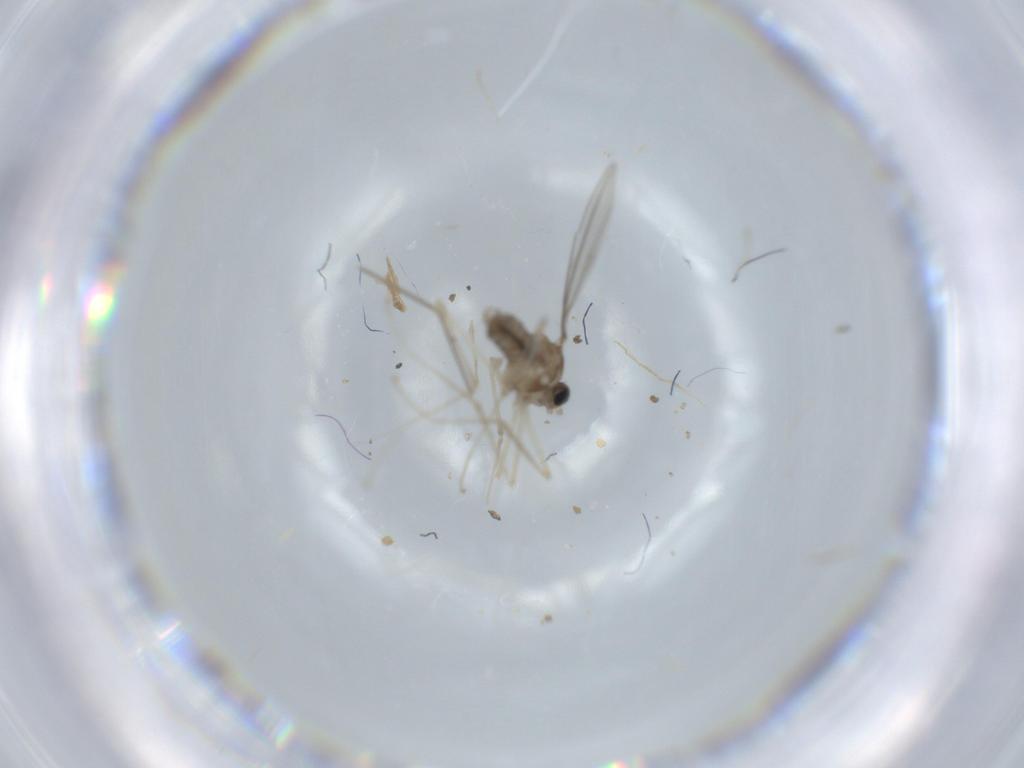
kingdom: Animalia
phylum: Arthropoda
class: Insecta
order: Diptera
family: Cecidomyiidae
